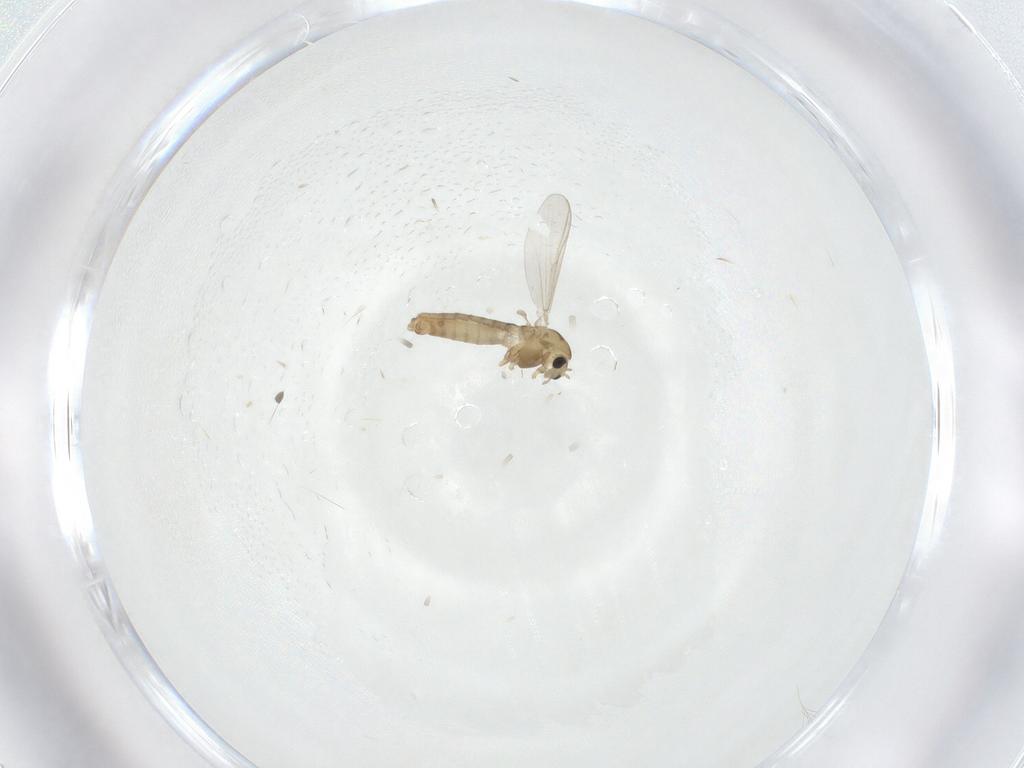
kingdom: Animalia
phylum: Arthropoda
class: Insecta
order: Diptera
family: Chironomidae
